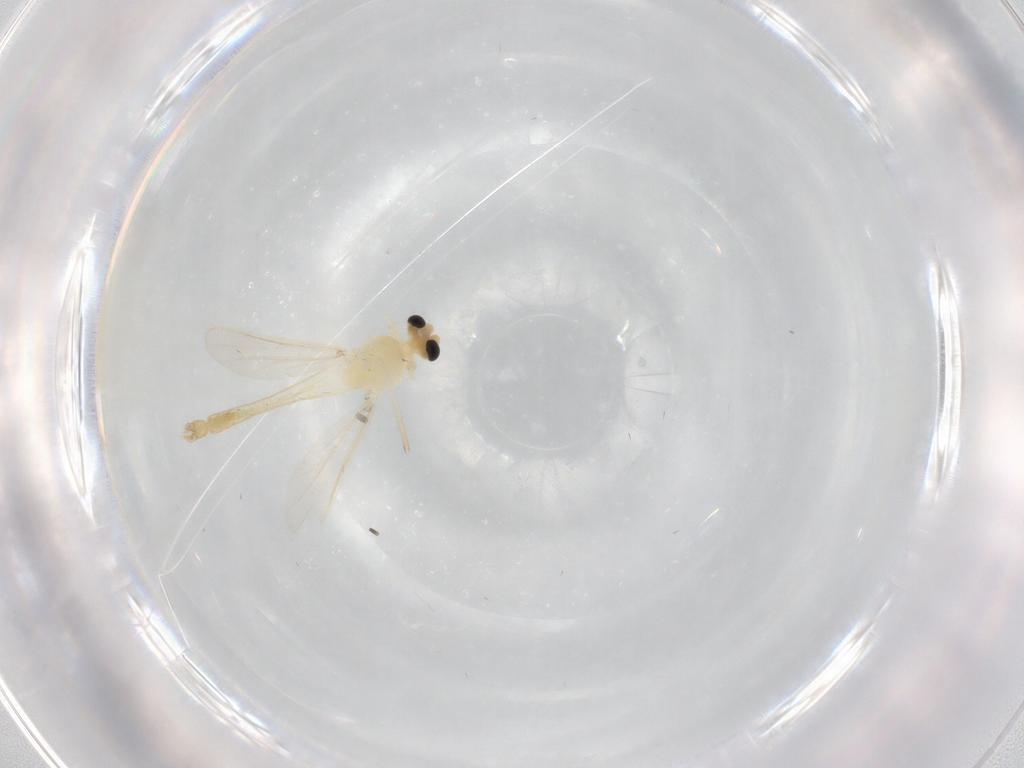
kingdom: Animalia
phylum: Arthropoda
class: Insecta
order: Diptera
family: Chironomidae
